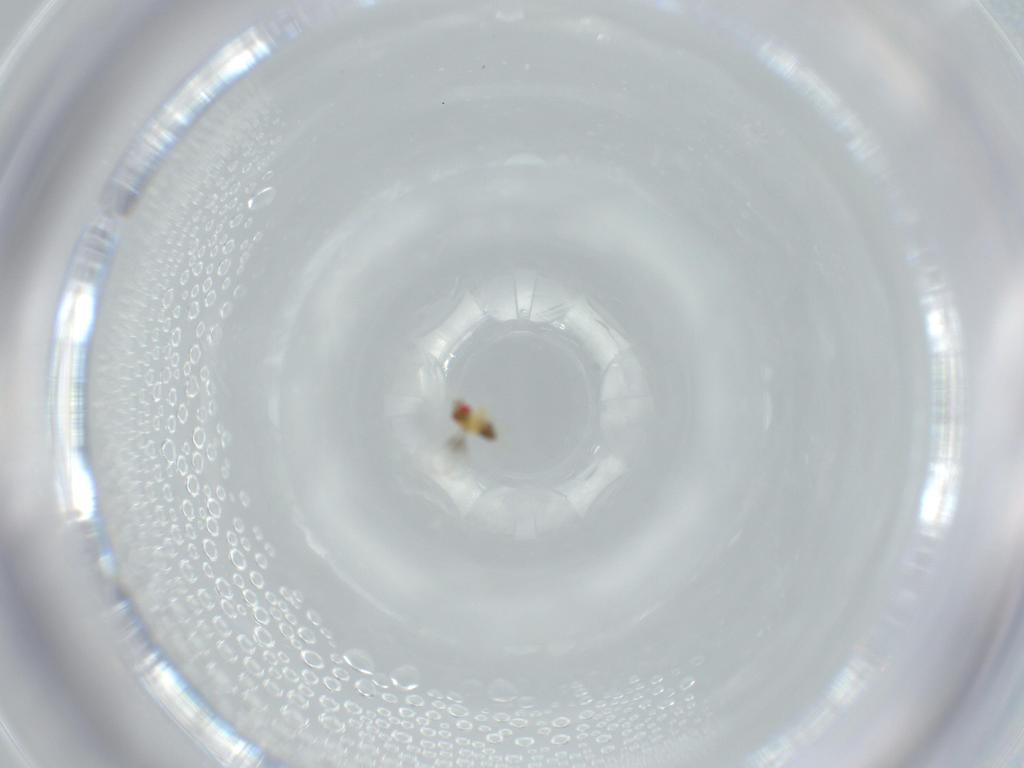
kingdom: Animalia
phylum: Arthropoda
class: Insecta
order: Hymenoptera
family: Trichogrammatidae
